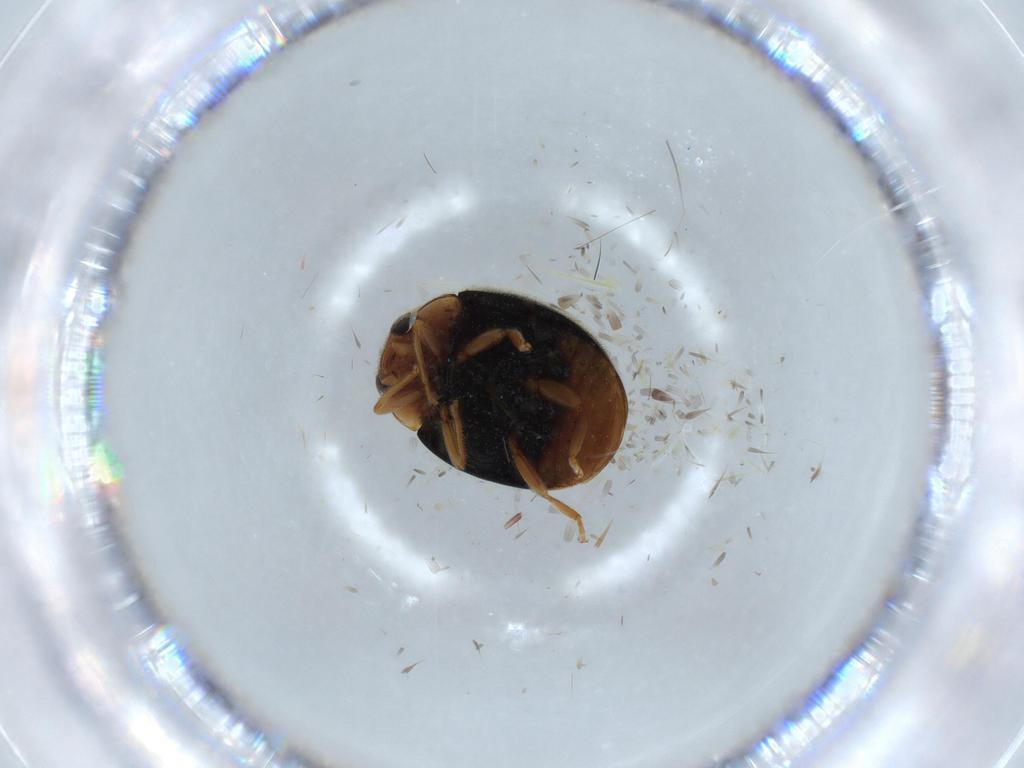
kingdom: Animalia
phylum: Arthropoda
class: Insecta
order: Coleoptera
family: Coccinellidae
